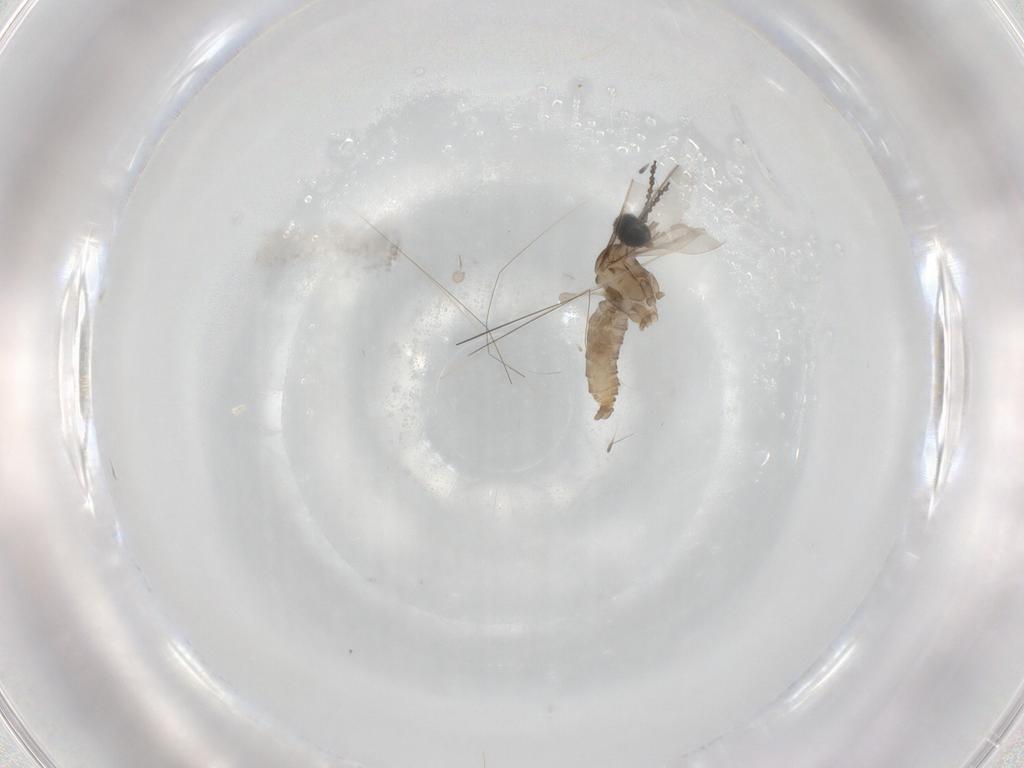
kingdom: Animalia
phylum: Arthropoda
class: Insecta
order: Diptera
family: Cecidomyiidae
